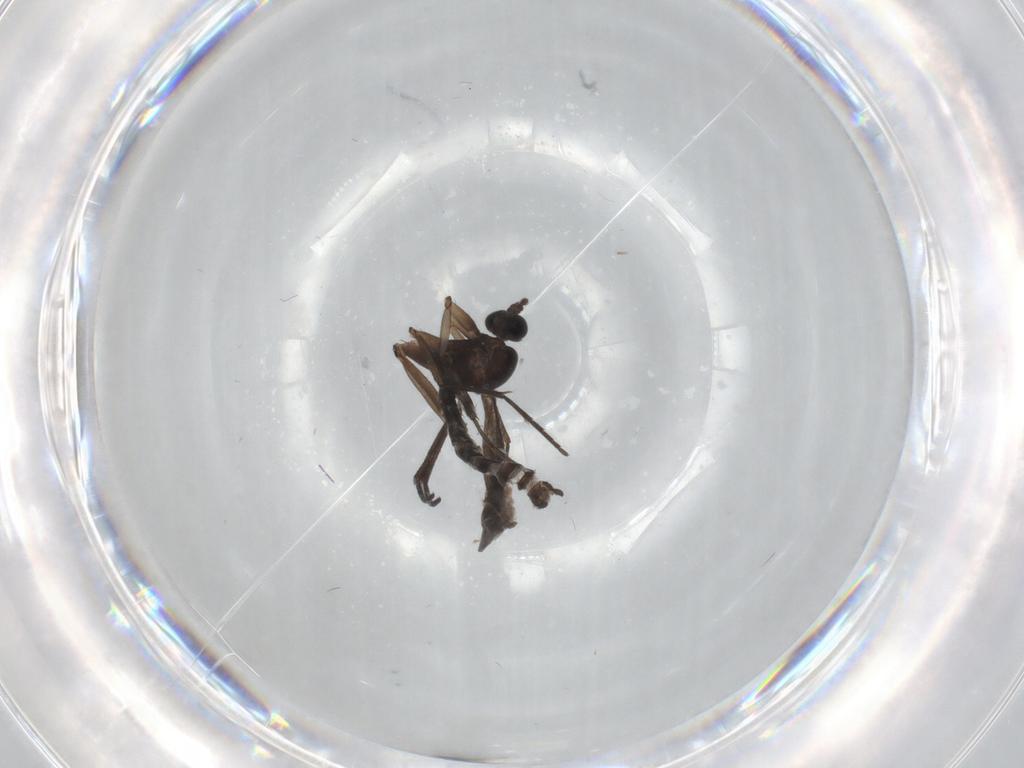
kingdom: Animalia
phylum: Arthropoda
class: Insecta
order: Diptera
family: Sciaridae
